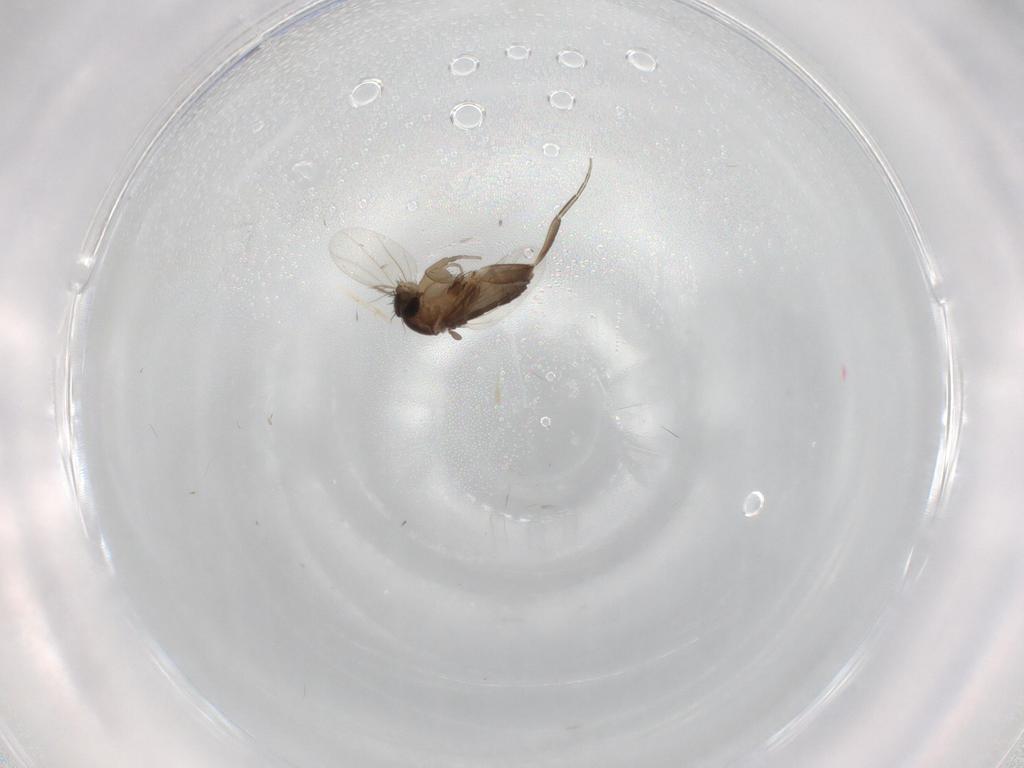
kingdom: Animalia
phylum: Arthropoda
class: Insecta
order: Diptera
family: Phoridae
